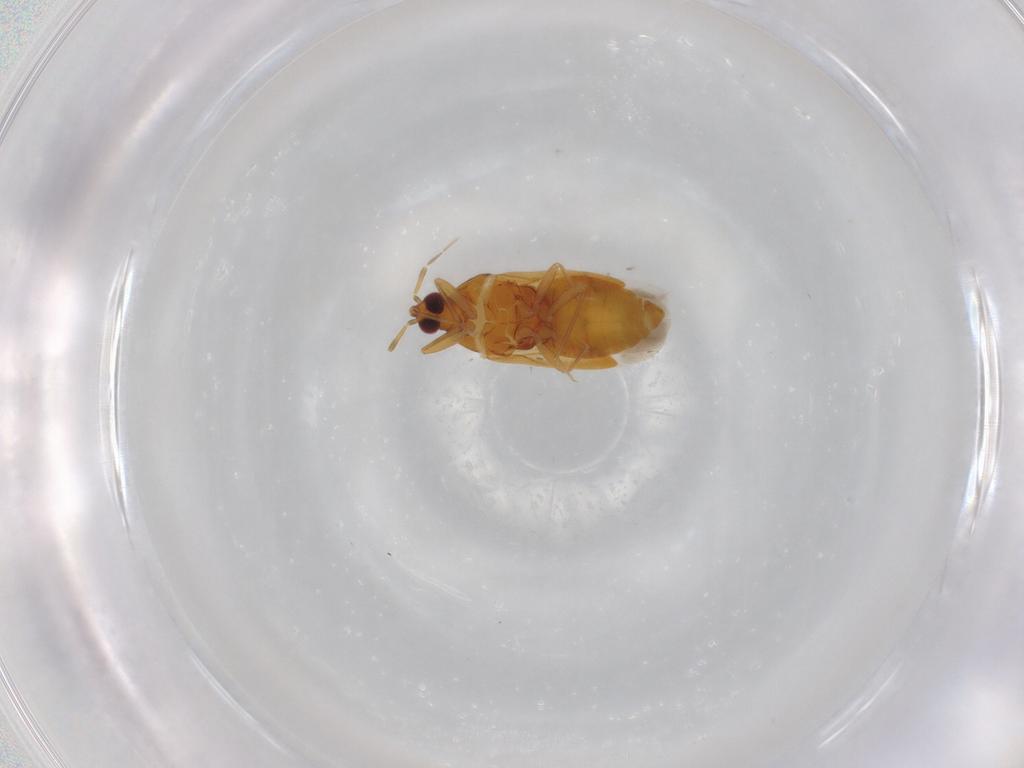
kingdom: Animalia
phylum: Arthropoda
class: Insecta
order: Hemiptera
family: Anthocoridae
